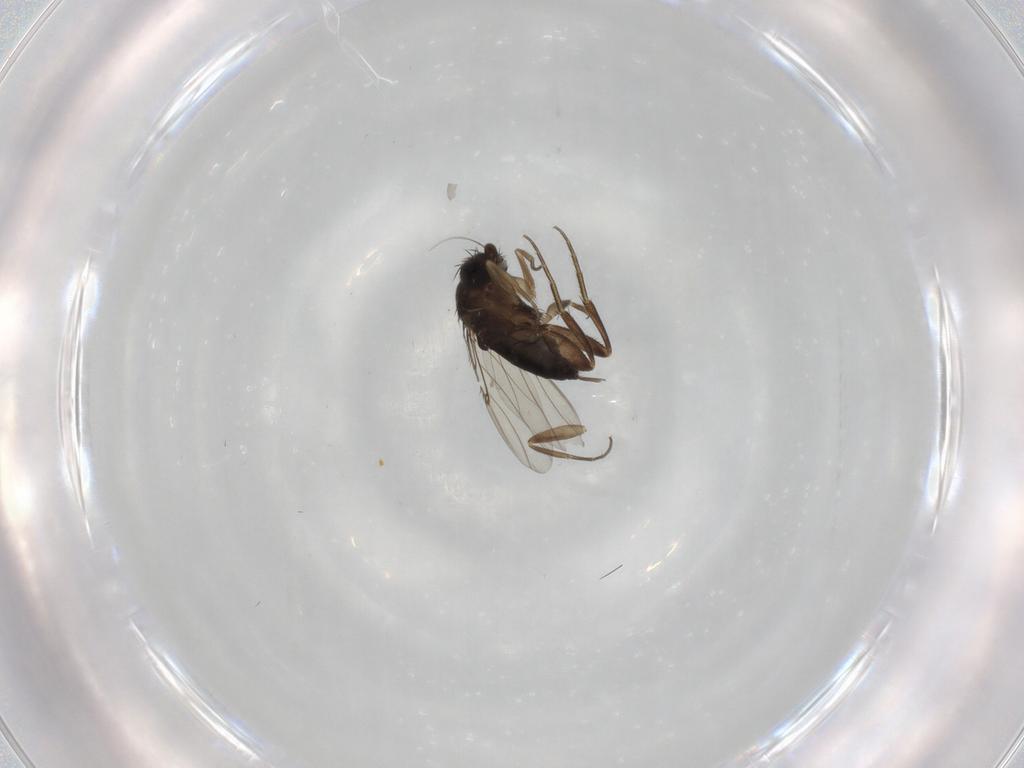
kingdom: Animalia
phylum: Arthropoda
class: Insecta
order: Diptera
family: Phoridae
